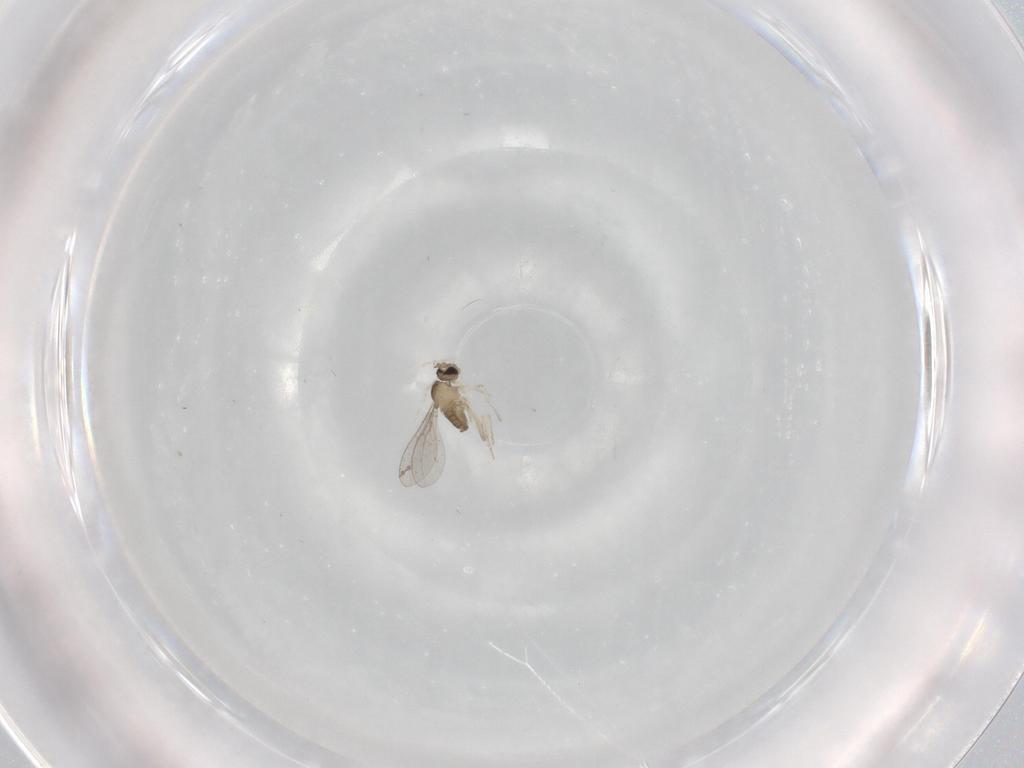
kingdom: Animalia
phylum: Arthropoda
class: Insecta
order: Diptera
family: Cecidomyiidae
